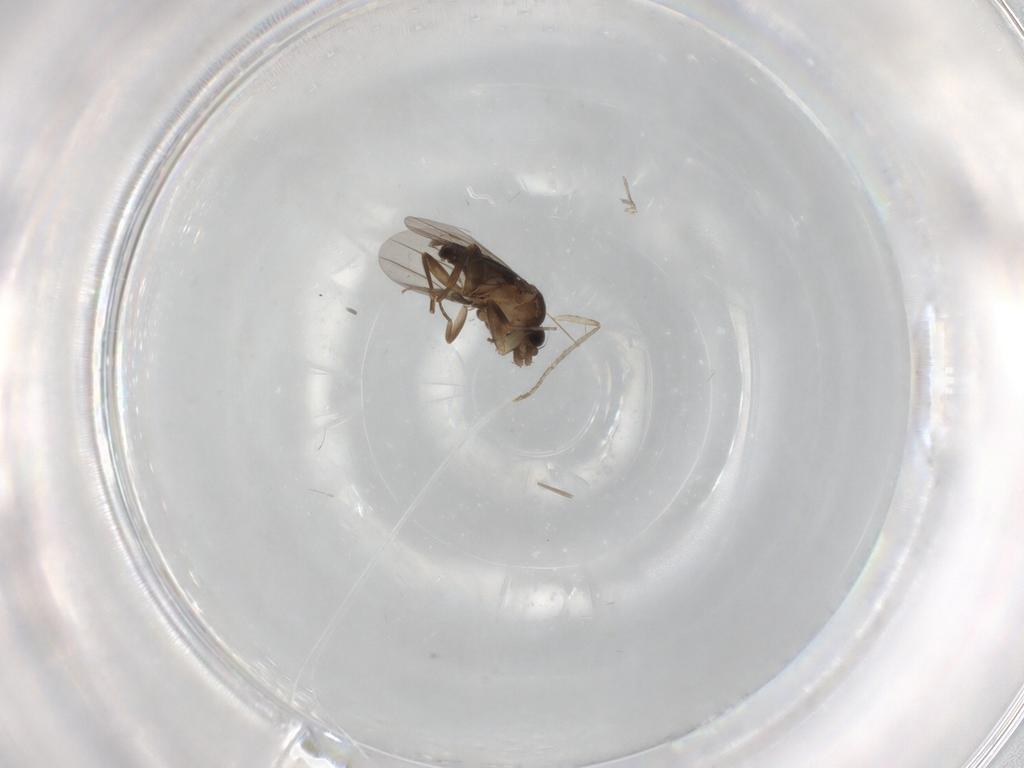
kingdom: Animalia
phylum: Arthropoda
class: Insecta
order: Diptera
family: Phoridae
